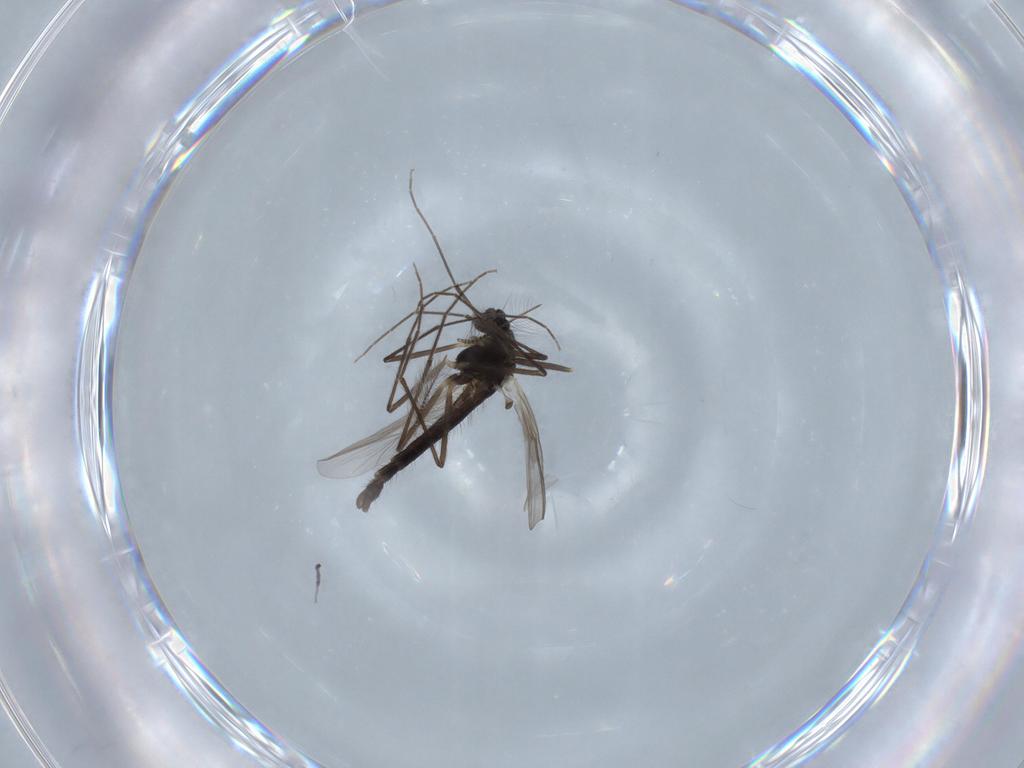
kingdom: Animalia
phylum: Arthropoda
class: Insecta
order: Diptera
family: Chironomidae
